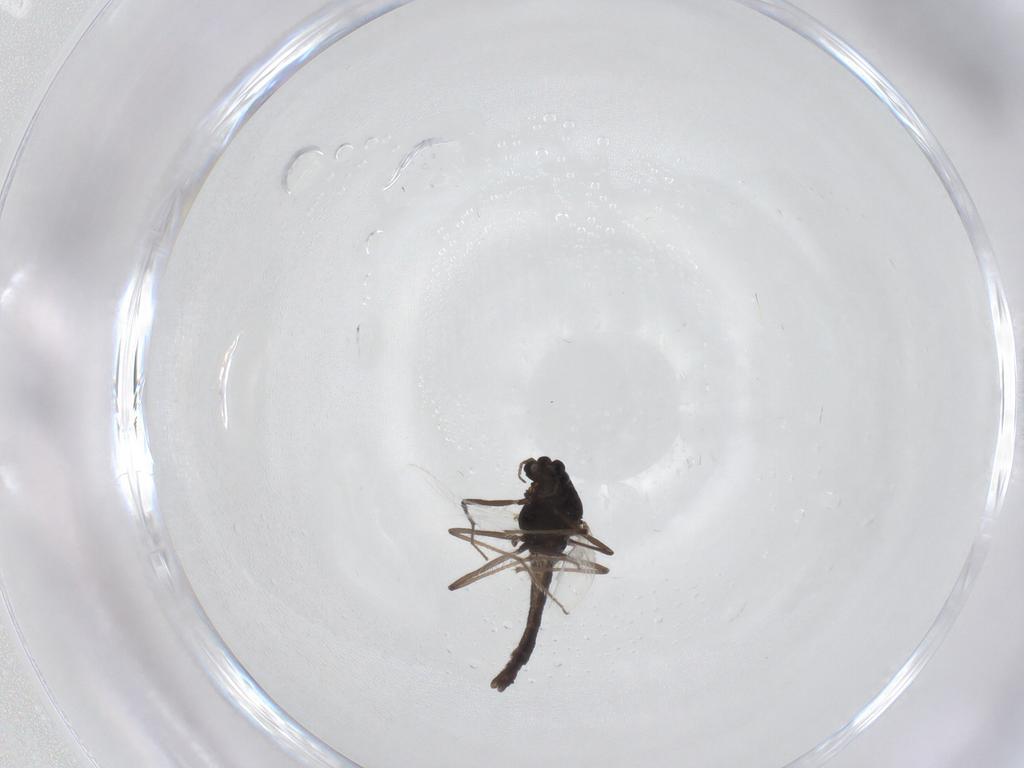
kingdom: Animalia
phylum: Arthropoda
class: Insecta
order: Diptera
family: Chironomidae
